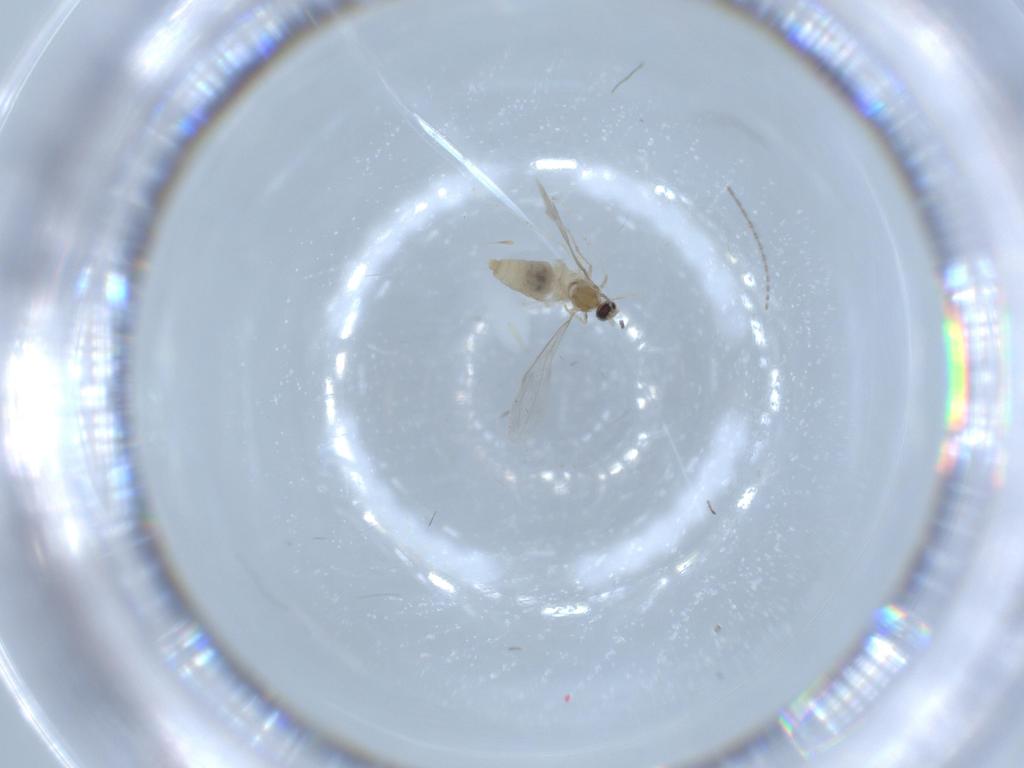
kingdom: Animalia
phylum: Arthropoda
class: Insecta
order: Diptera
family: Cecidomyiidae
